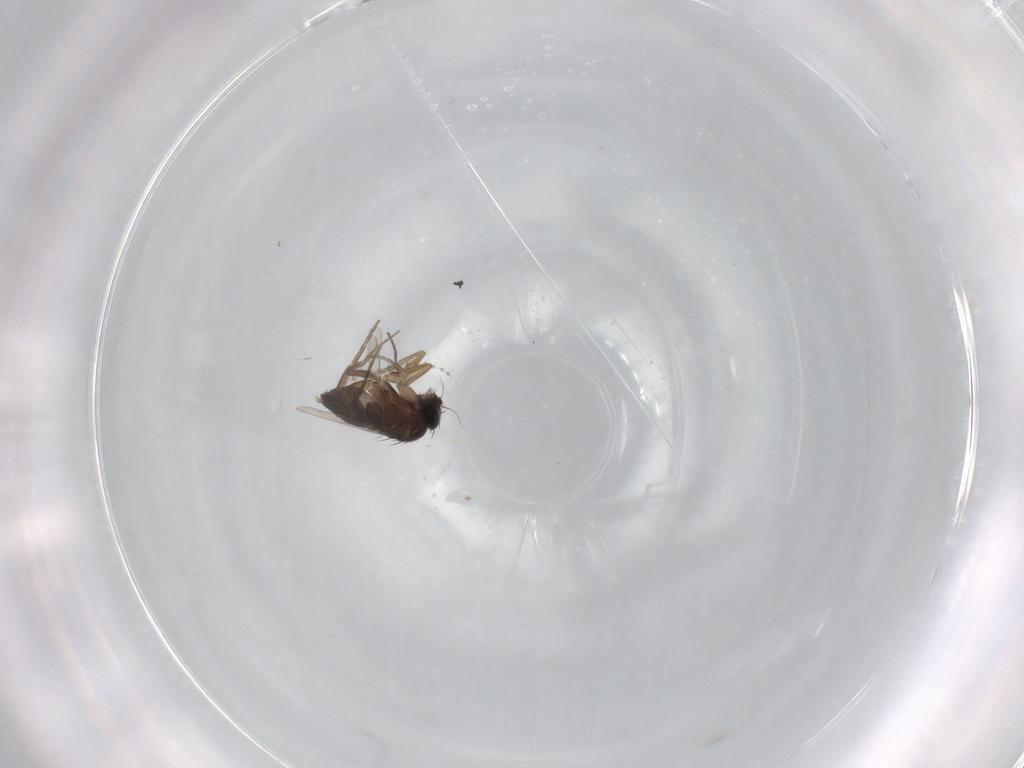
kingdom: Animalia
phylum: Arthropoda
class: Insecta
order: Diptera
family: Phoridae
